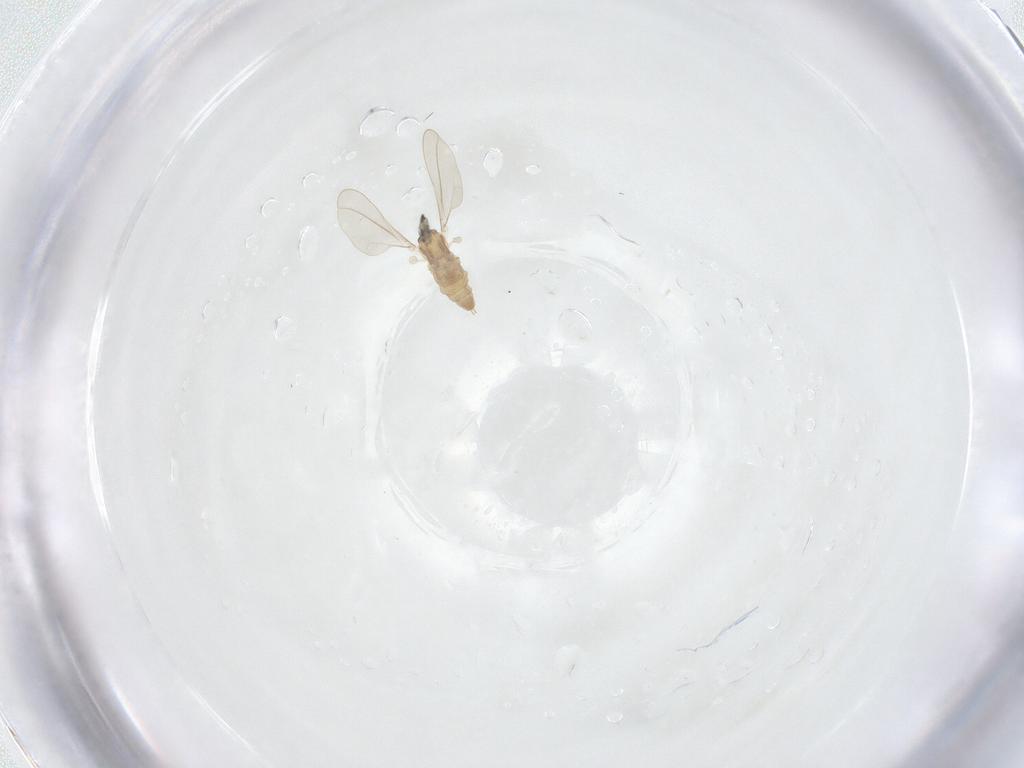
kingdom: Animalia
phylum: Arthropoda
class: Insecta
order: Diptera
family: Cecidomyiidae
